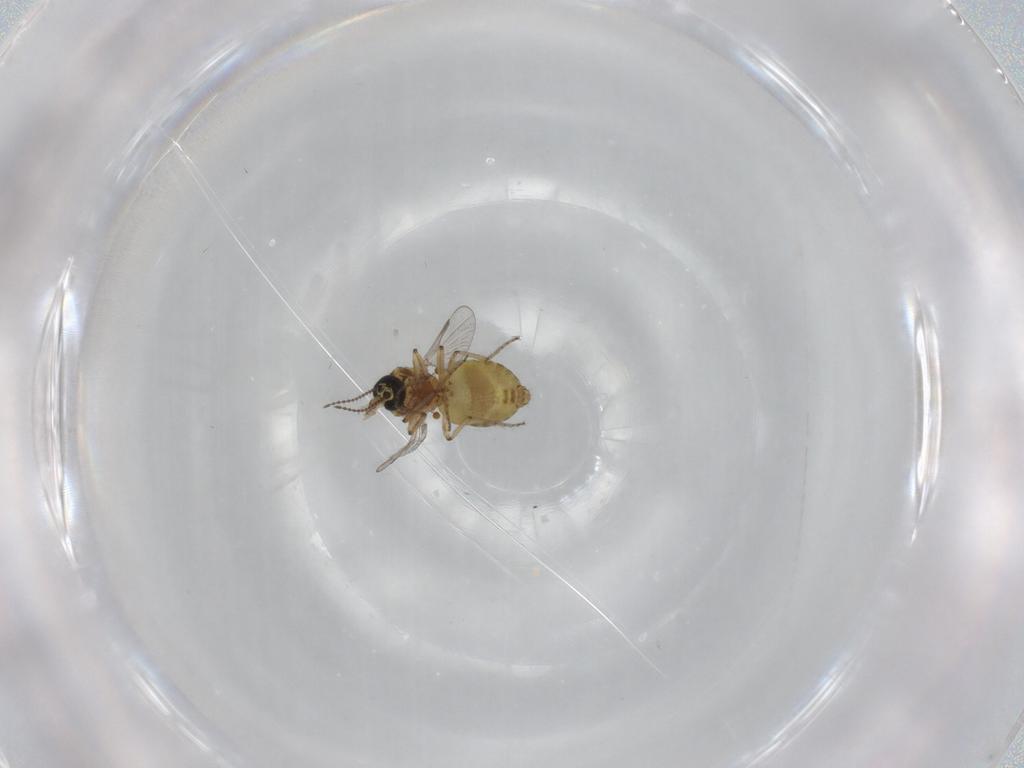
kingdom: Animalia
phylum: Arthropoda
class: Insecta
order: Diptera
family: Ceratopogonidae
